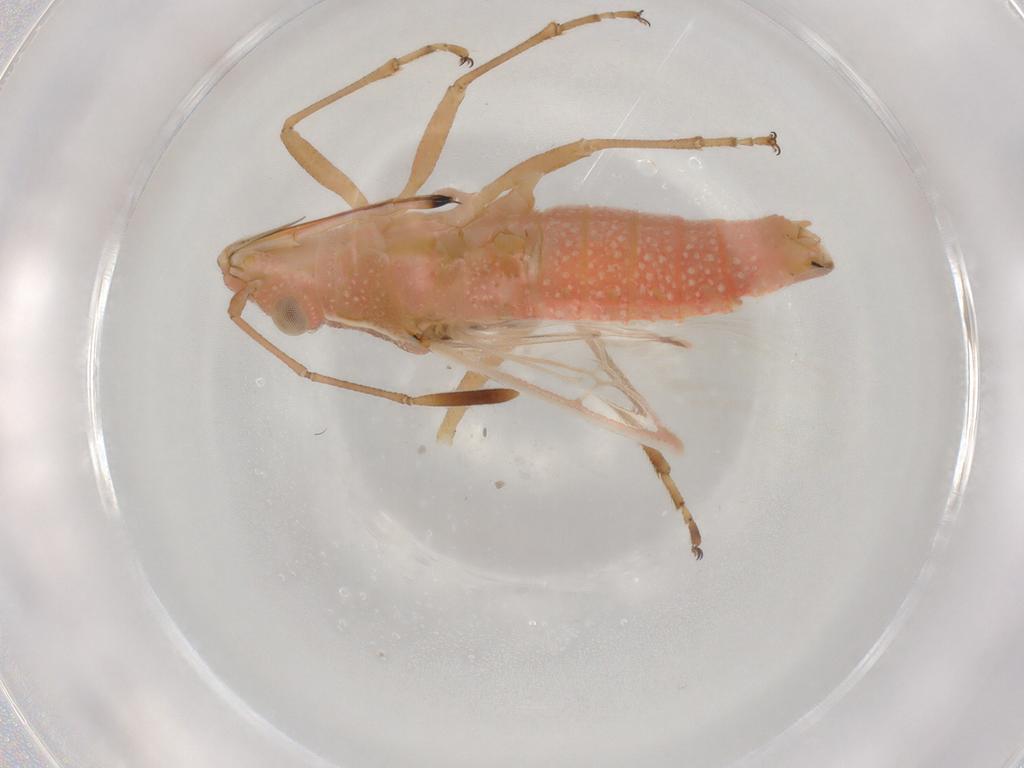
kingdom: Animalia
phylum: Arthropoda
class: Insecta
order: Hemiptera
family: Rhopalidae
